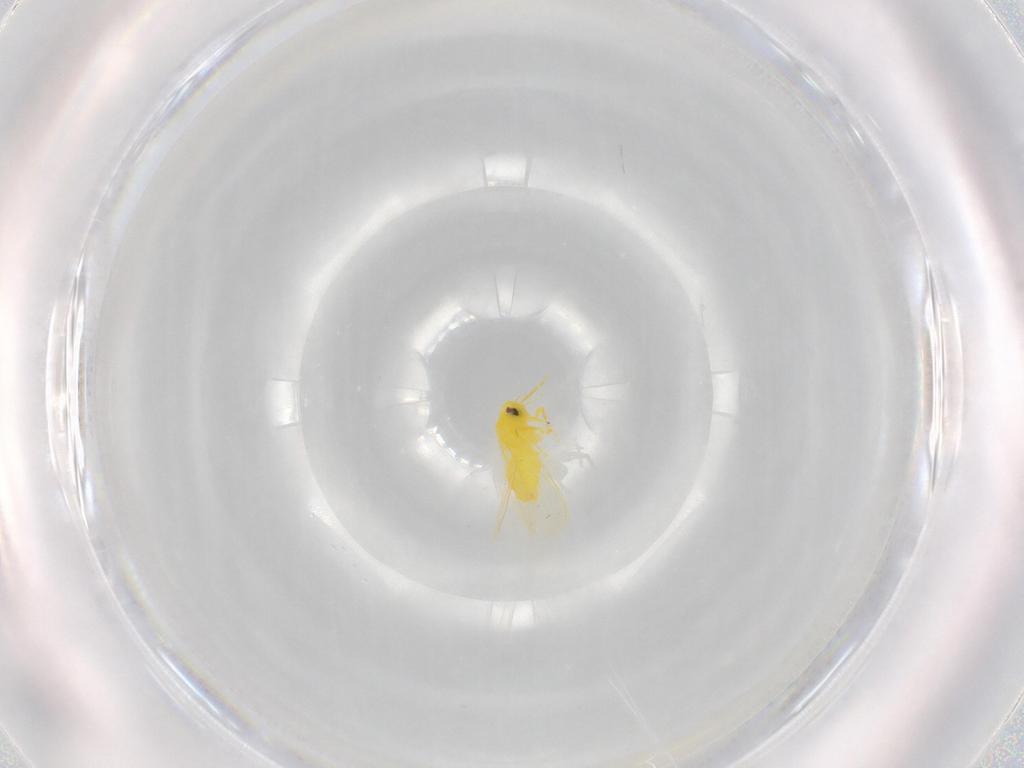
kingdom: Animalia
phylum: Arthropoda
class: Insecta
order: Hemiptera
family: Aleyrodidae
